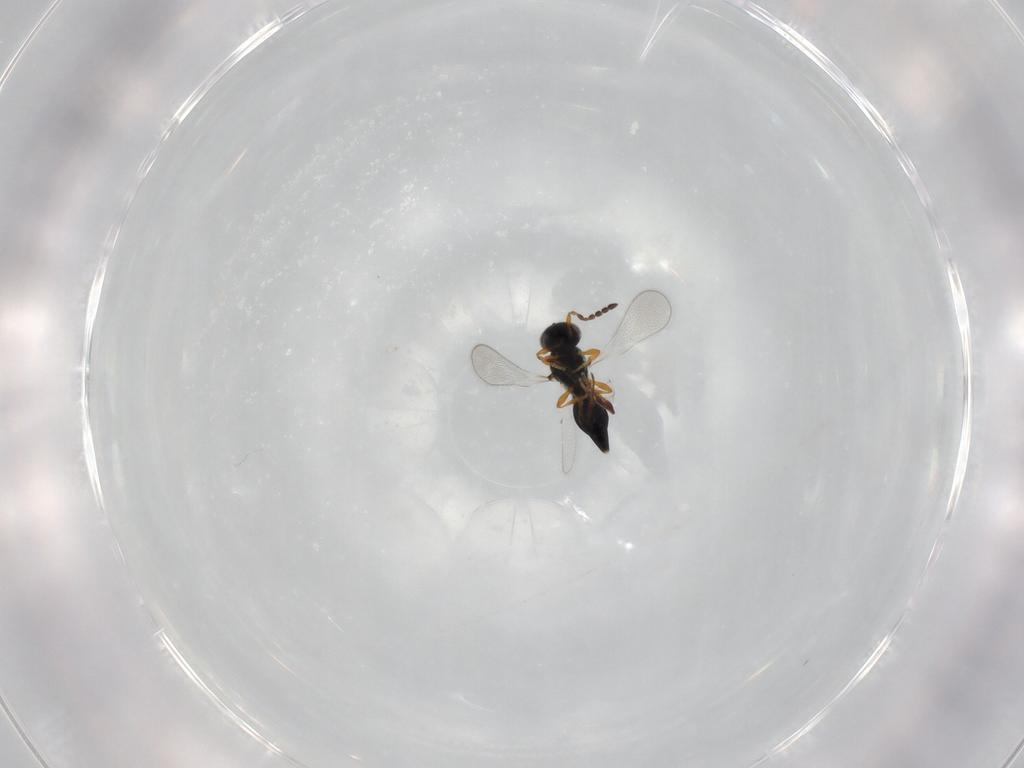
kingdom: Animalia
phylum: Arthropoda
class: Insecta
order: Hymenoptera
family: Platygastridae
